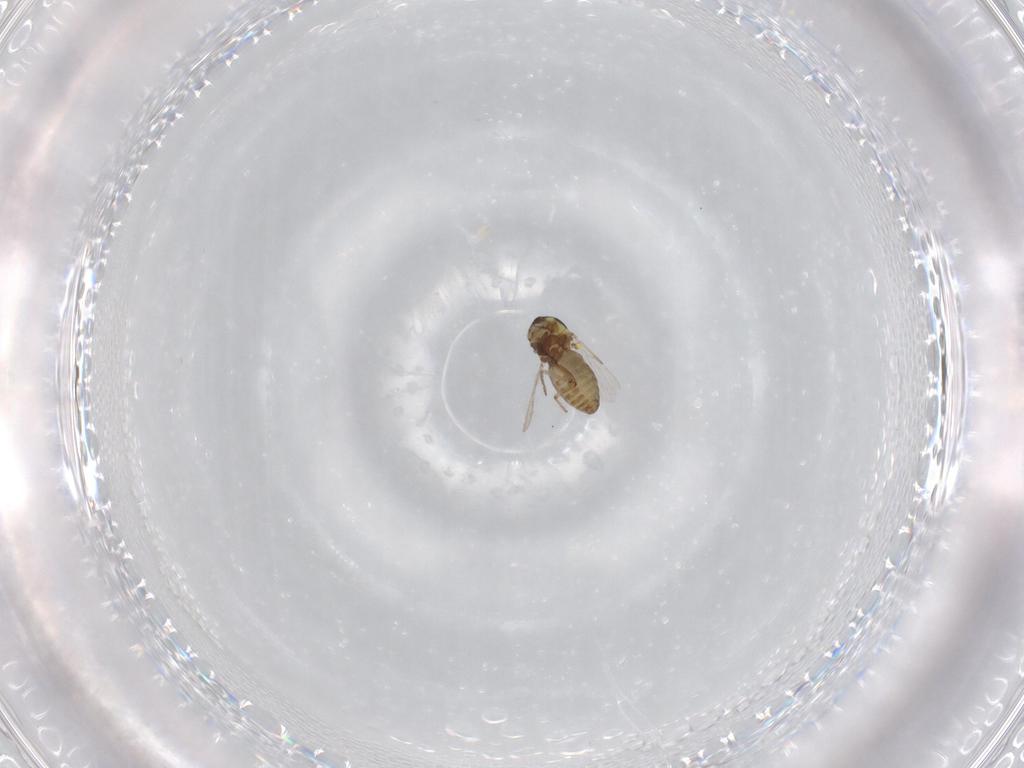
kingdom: Animalia
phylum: Arthropoda
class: Insecta
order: Diptera
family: Ceratopogonidae
